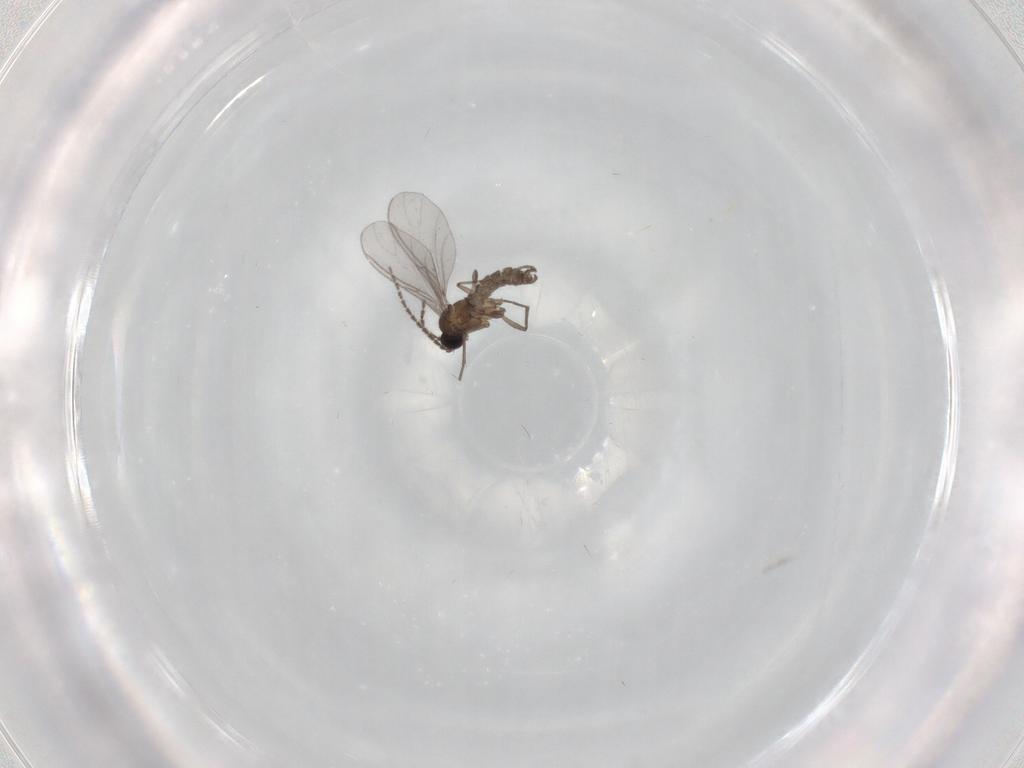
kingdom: Animalia
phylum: Arthropoda
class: Insecta
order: Diptera
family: Sciaridae
